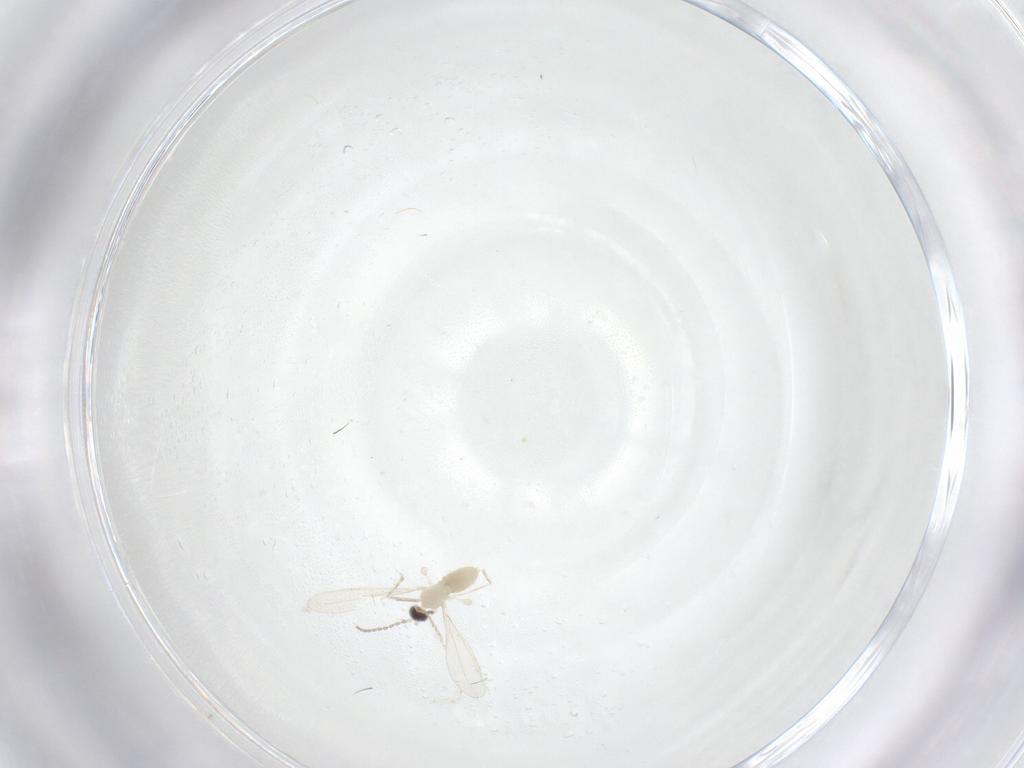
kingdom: Animalia
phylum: Arthropoda
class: Insecta
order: Diptera
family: Cecidomyiidae
